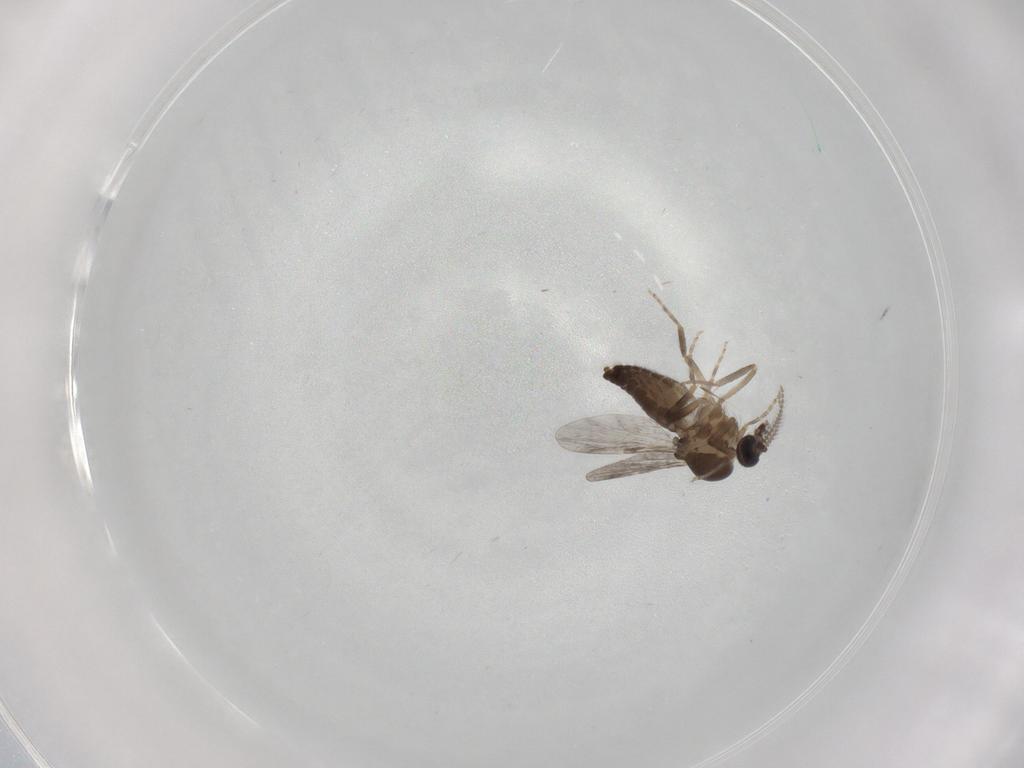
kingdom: Animalia
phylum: Arthropoda
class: Insecta
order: Diptera
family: Ceratopogonidae
